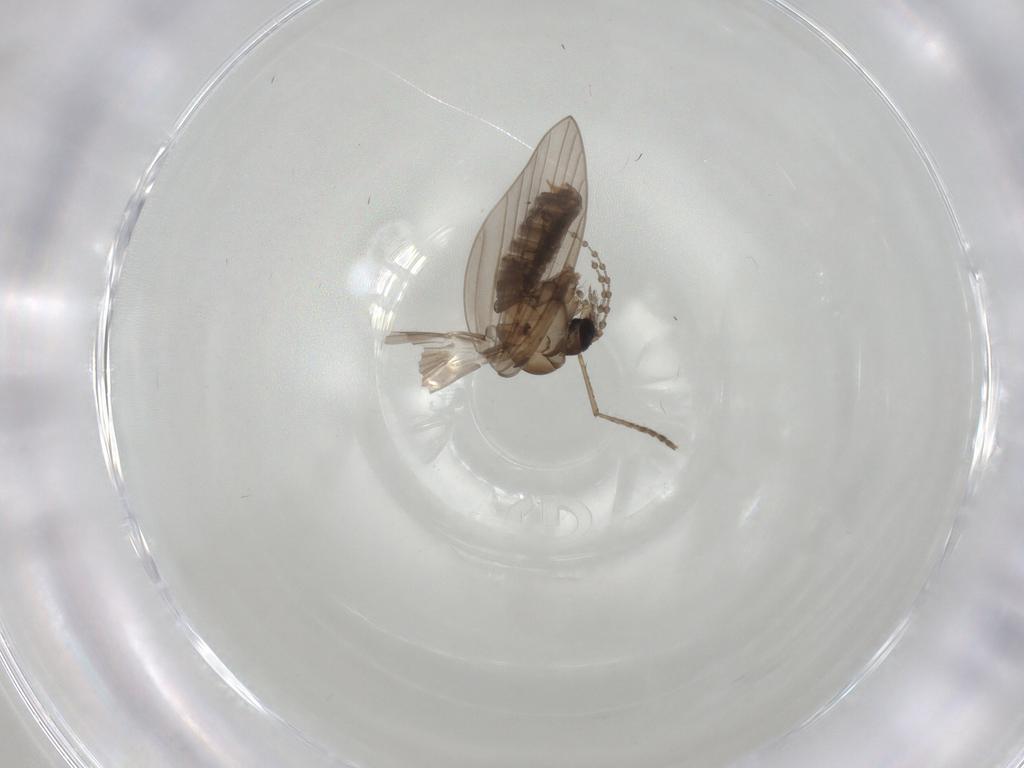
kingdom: Animalia
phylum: Arthropoda
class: Insecta
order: Diptera
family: Psychodidae
